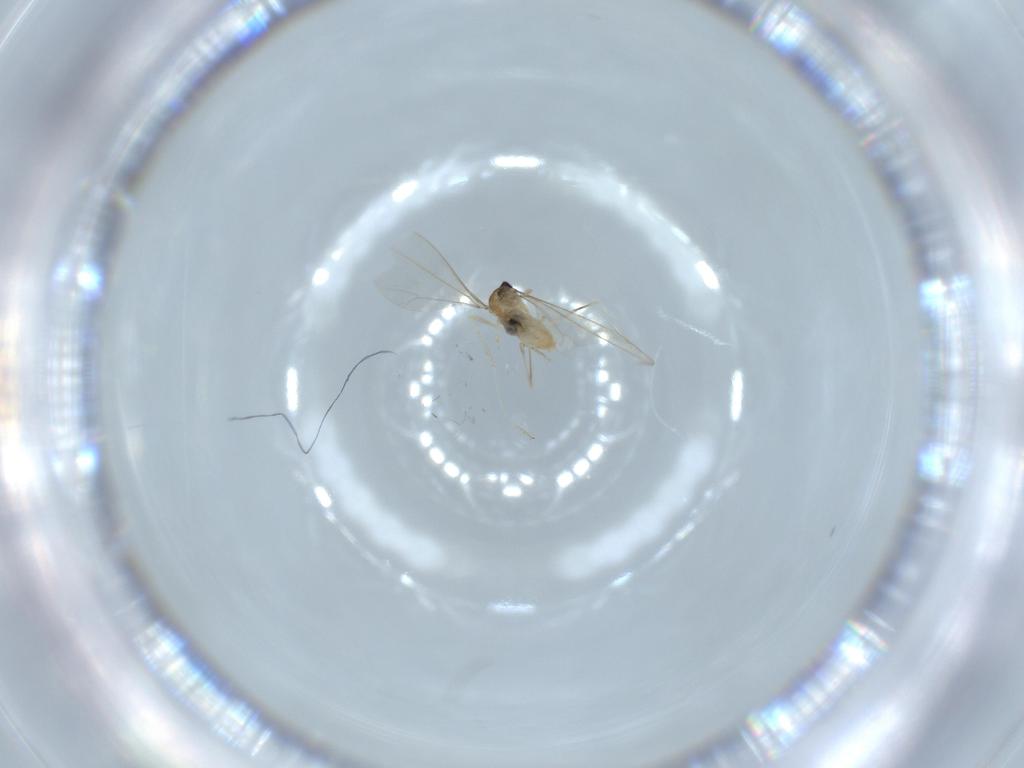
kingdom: Animalia
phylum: Arthropoda
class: Insecta
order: Diptera
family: Cecidomyiidae
